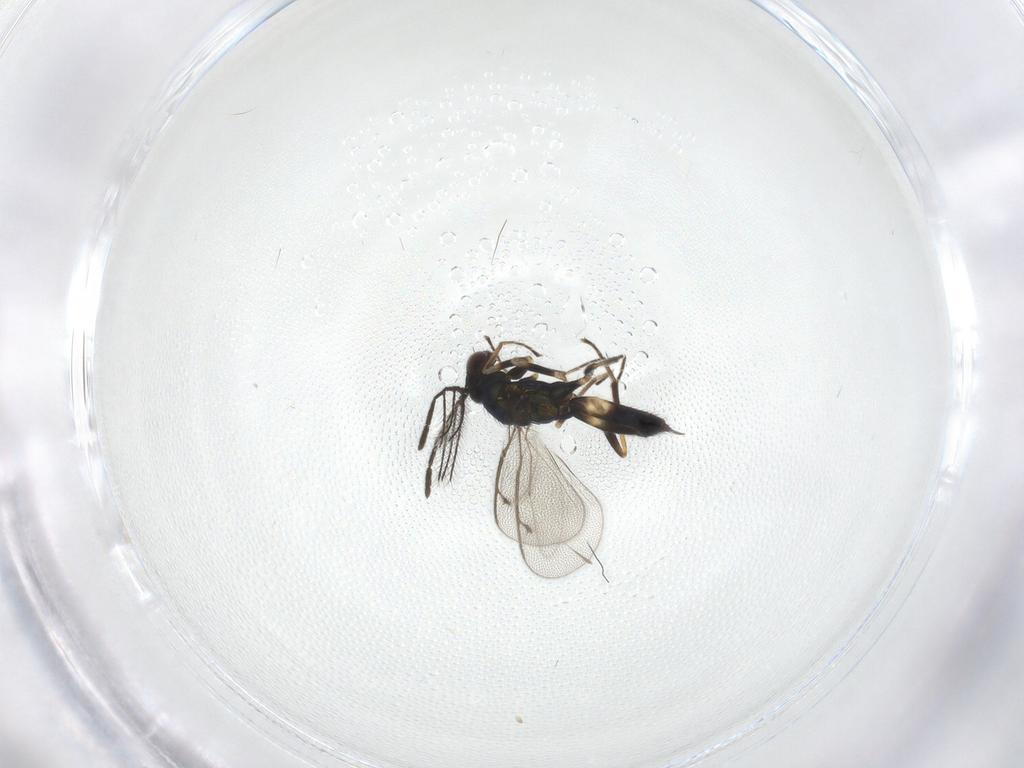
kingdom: Animalia
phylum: Arthropoda
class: Insecta
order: Hymenoptera
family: Eulophidae
